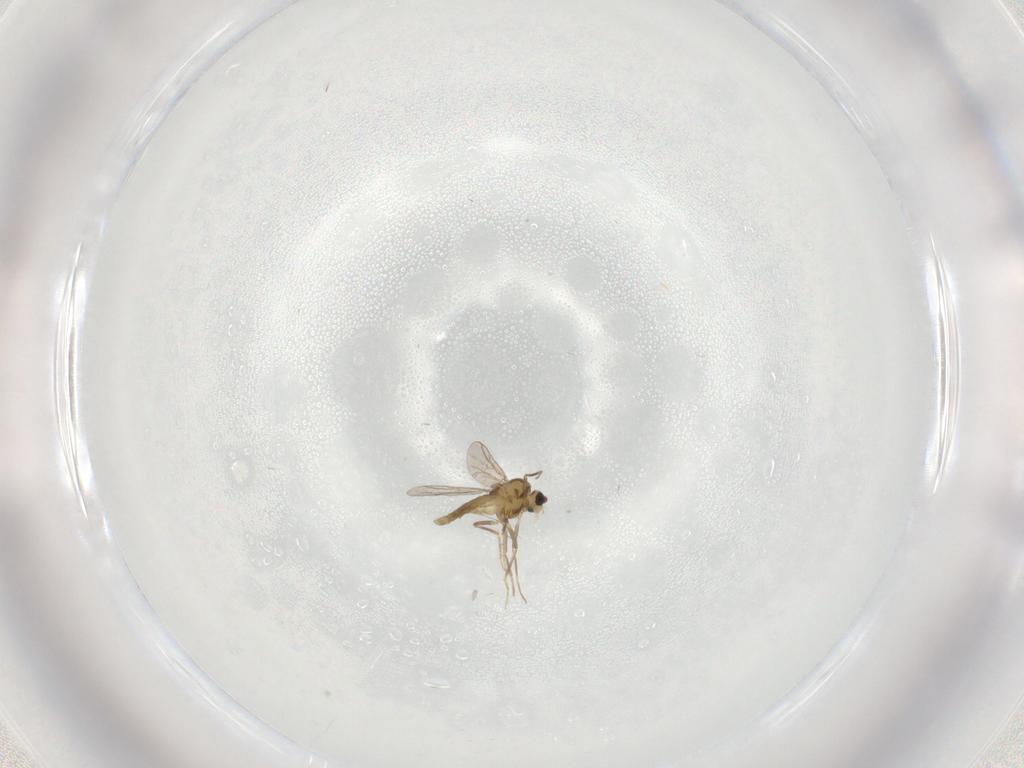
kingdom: Animalia
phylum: Arthropoda
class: Insecta
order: Diptera
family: Chironomidae
